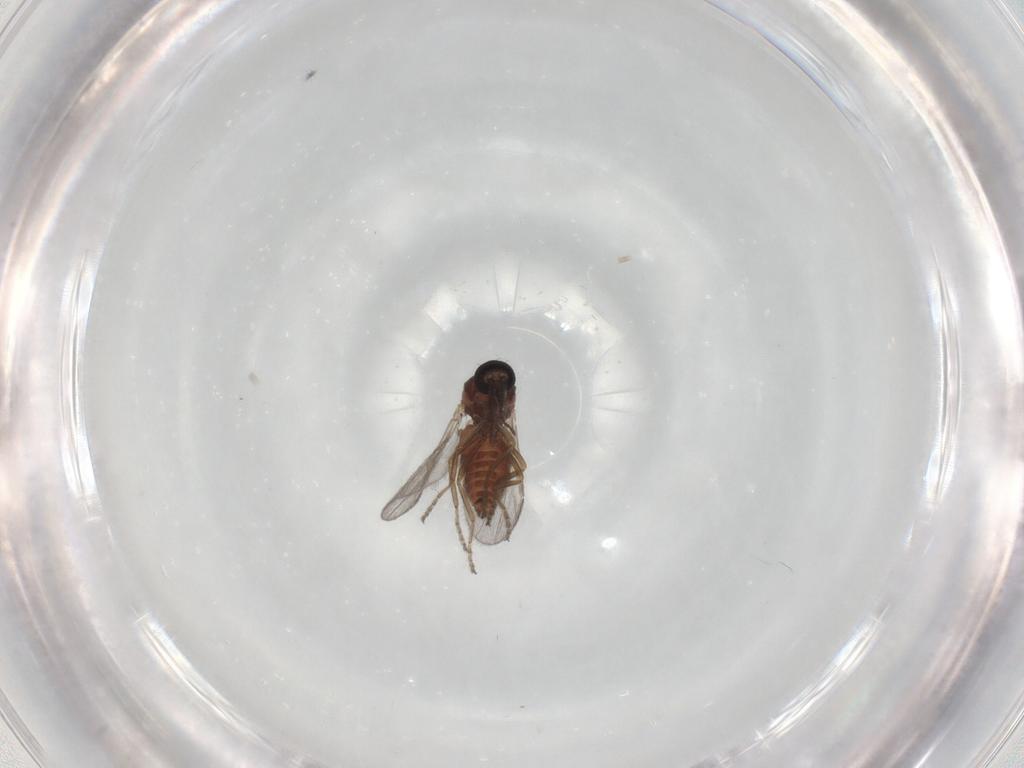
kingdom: Animalia
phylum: Arthropoda
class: Insecta
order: Diptera
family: Ceratopogonidae
